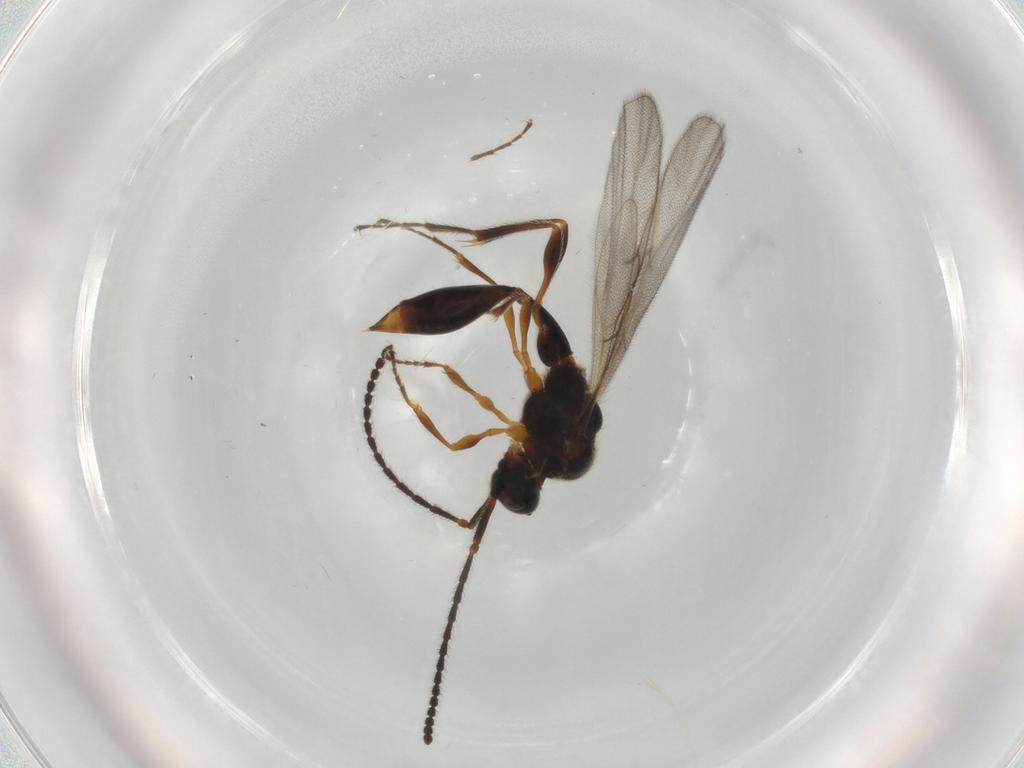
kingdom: Animalia
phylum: Arthropoda
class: Insecta
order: Hymenoptera
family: Diapriidae
